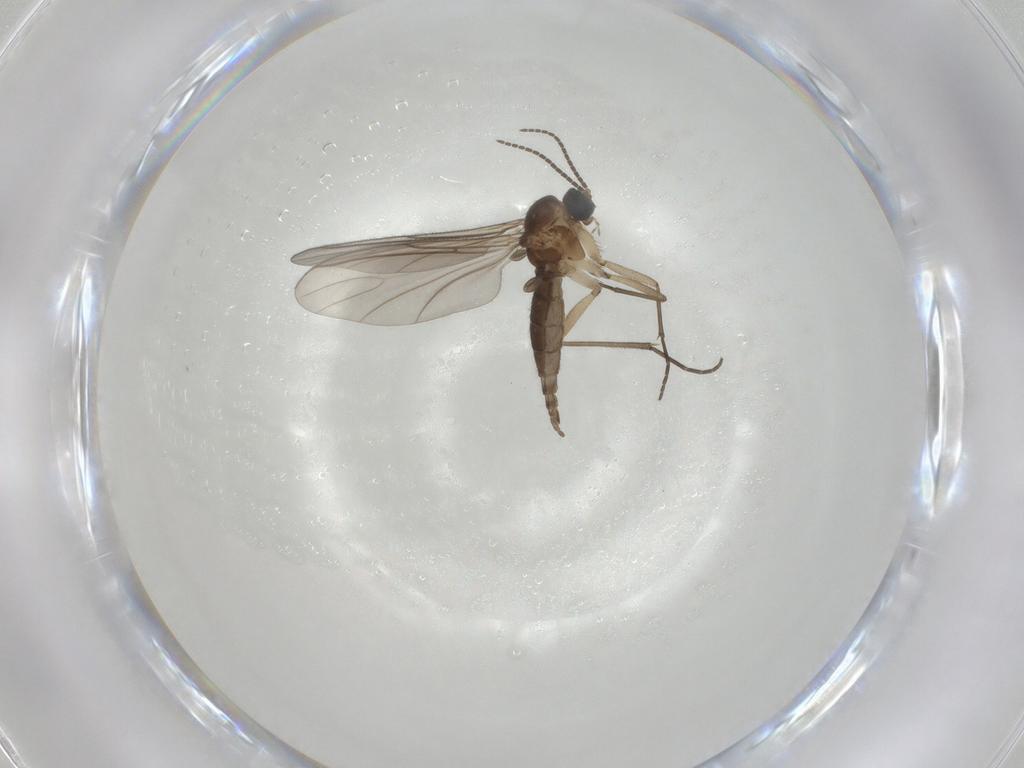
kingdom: Animalia
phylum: Arthropoda
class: Insecta
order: Diptera
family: Sciaridae
